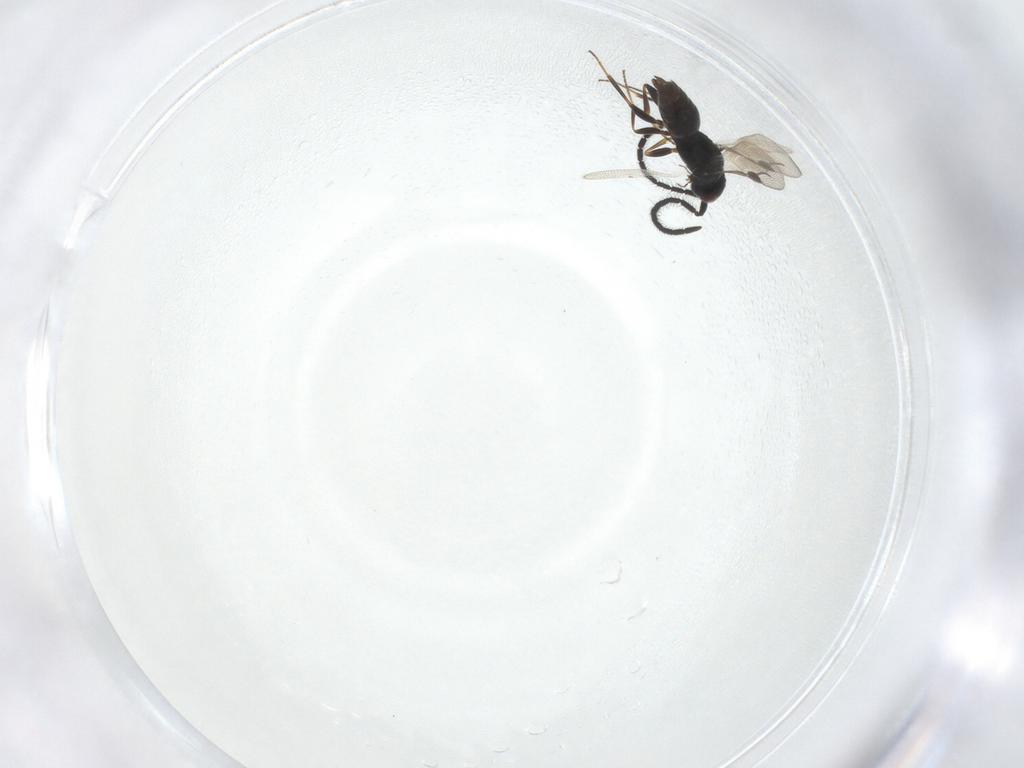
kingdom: Animalia
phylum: Arthropoda
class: Insecta
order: Hymenoptera
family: Megaspilidae
